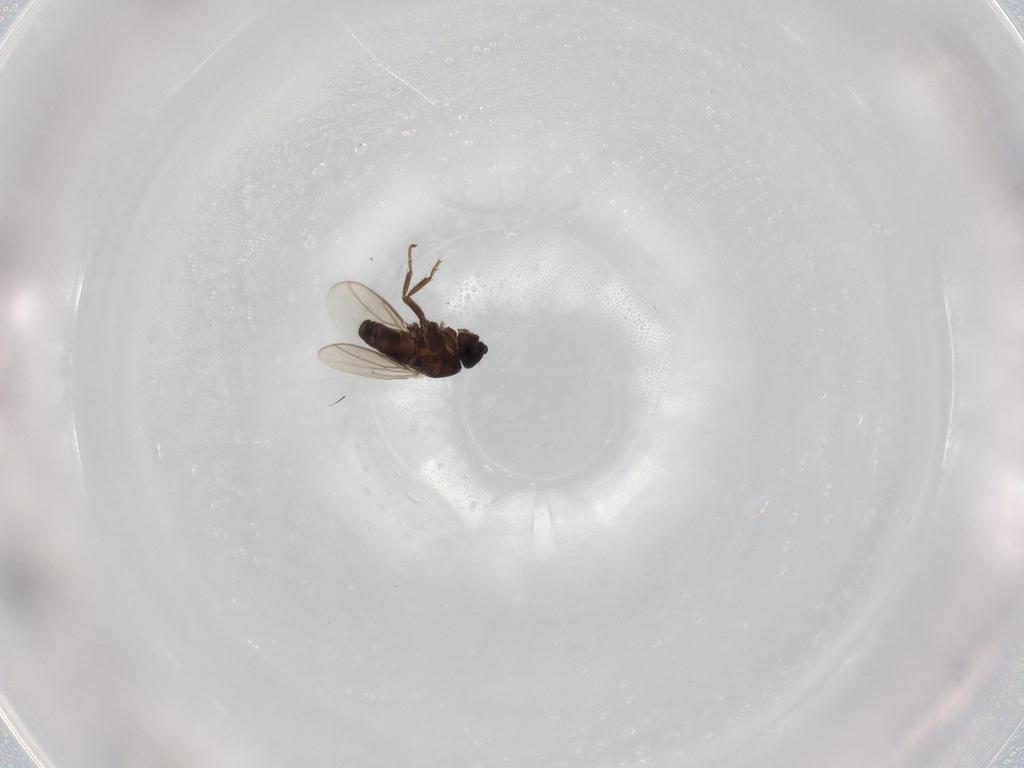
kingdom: Animalia
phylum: Arthropoda
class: Insecta
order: Diptera
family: Sphaeroceridae
